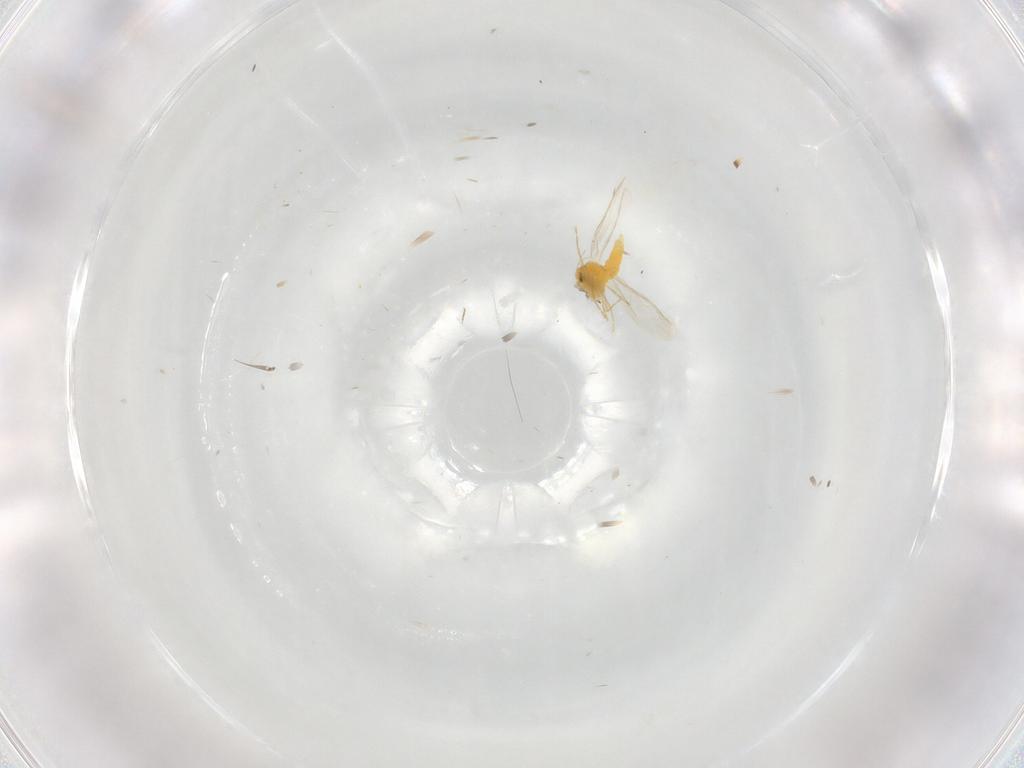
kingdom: Animalia
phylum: Arthropoda
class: Insecta
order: Hemiptera
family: Aleyrodidae
